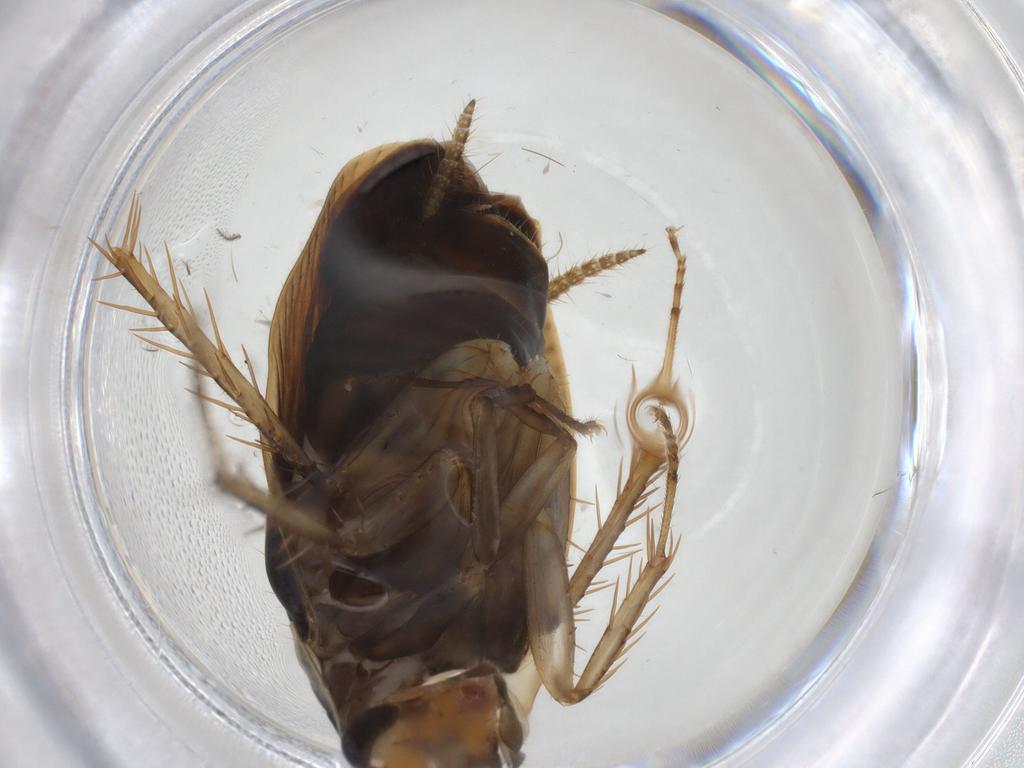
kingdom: Animalia
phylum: Arthropoda
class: Insecta
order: Blattodea
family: Ectobiidae
